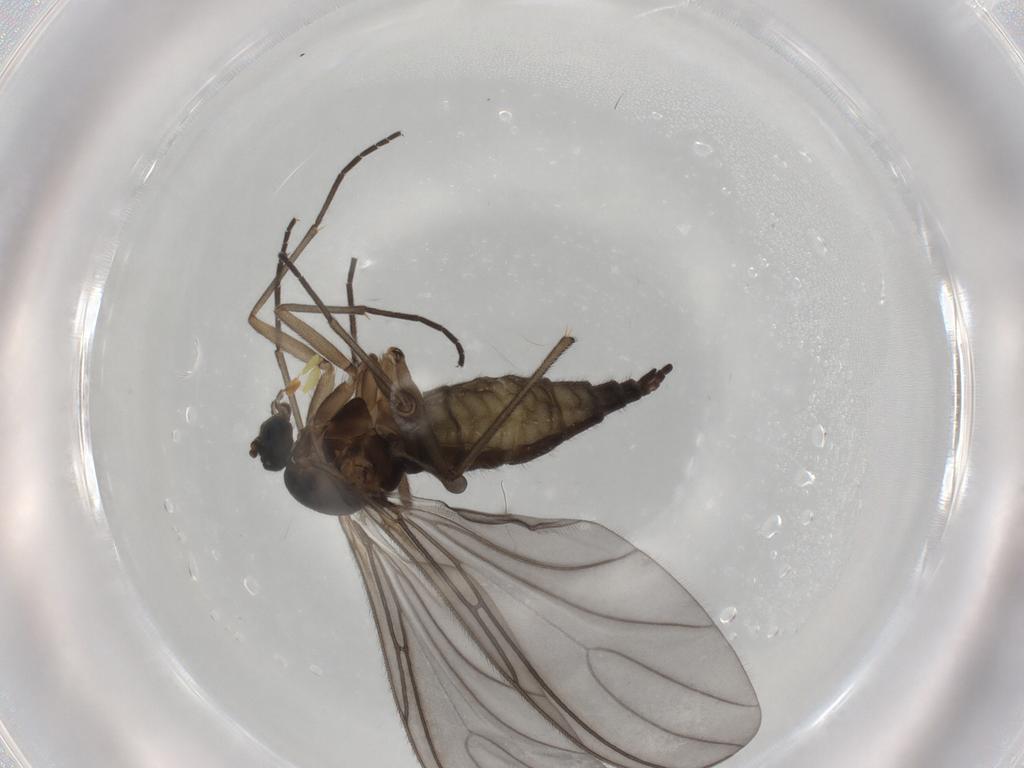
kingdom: Animalia
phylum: Arthropoda
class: Insecta
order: Diptera
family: Sciaridae
